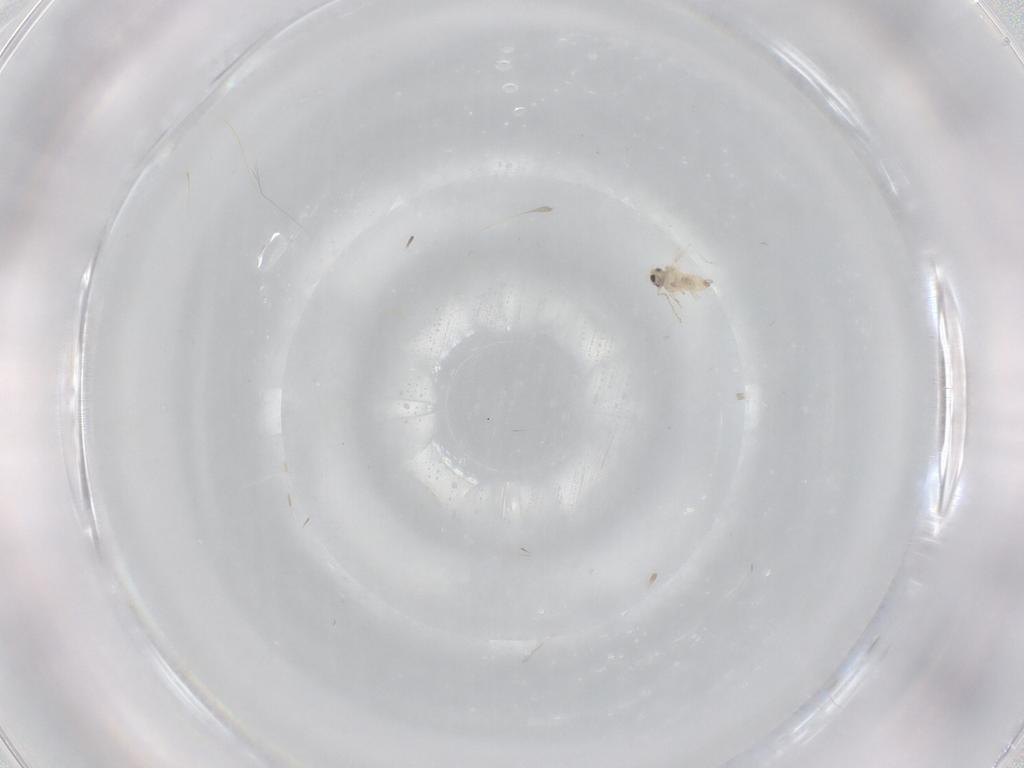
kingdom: Animalia
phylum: Arthropoda
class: Insecta
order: Diptera
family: Cecidomyiidae
